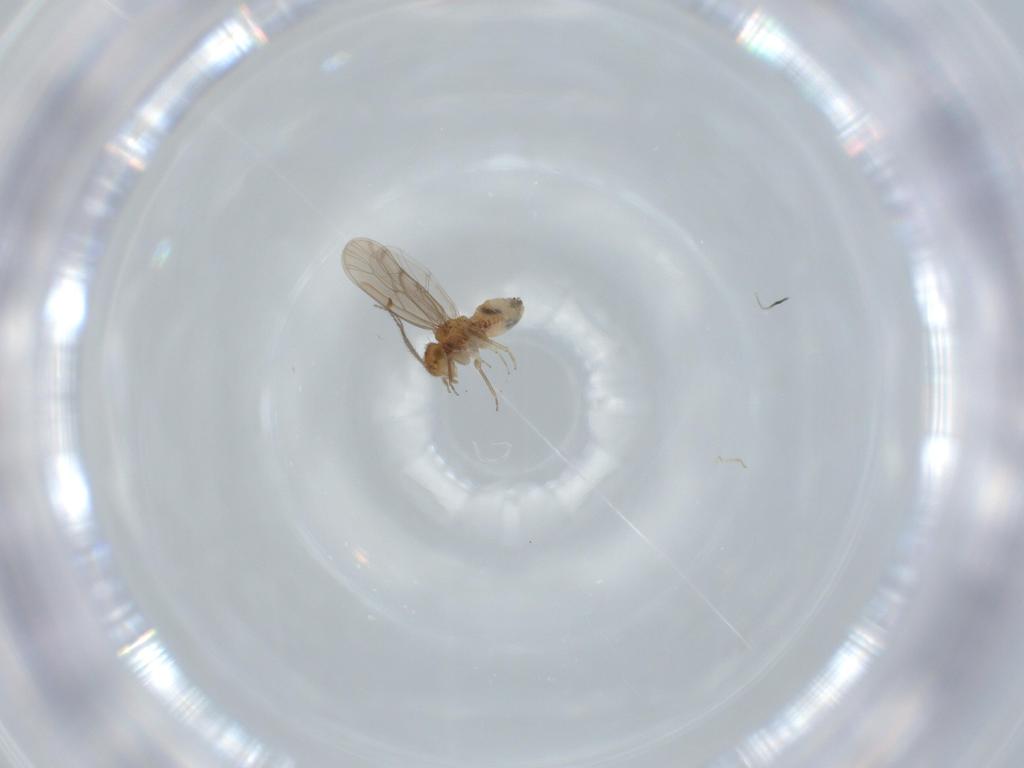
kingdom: Animalia
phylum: Arthropoda
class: Insecta
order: Psocodea
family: Ectopsocidae
